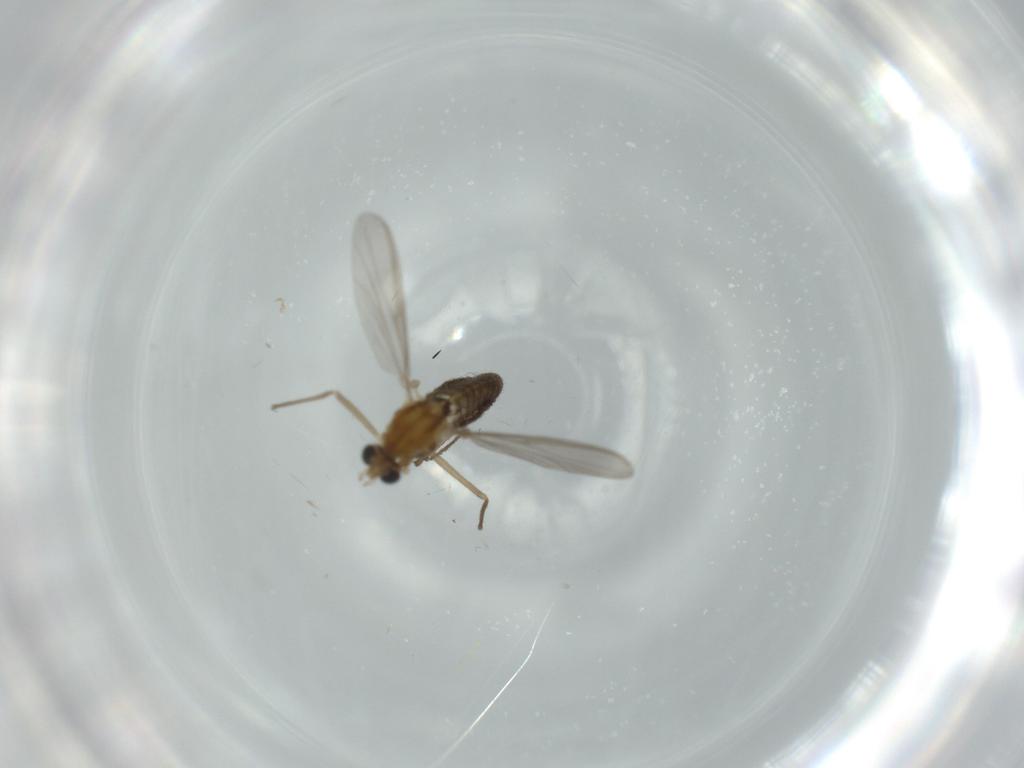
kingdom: Animalia
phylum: Arthropoda
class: Insecta
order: Diptera
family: Chironomidae
